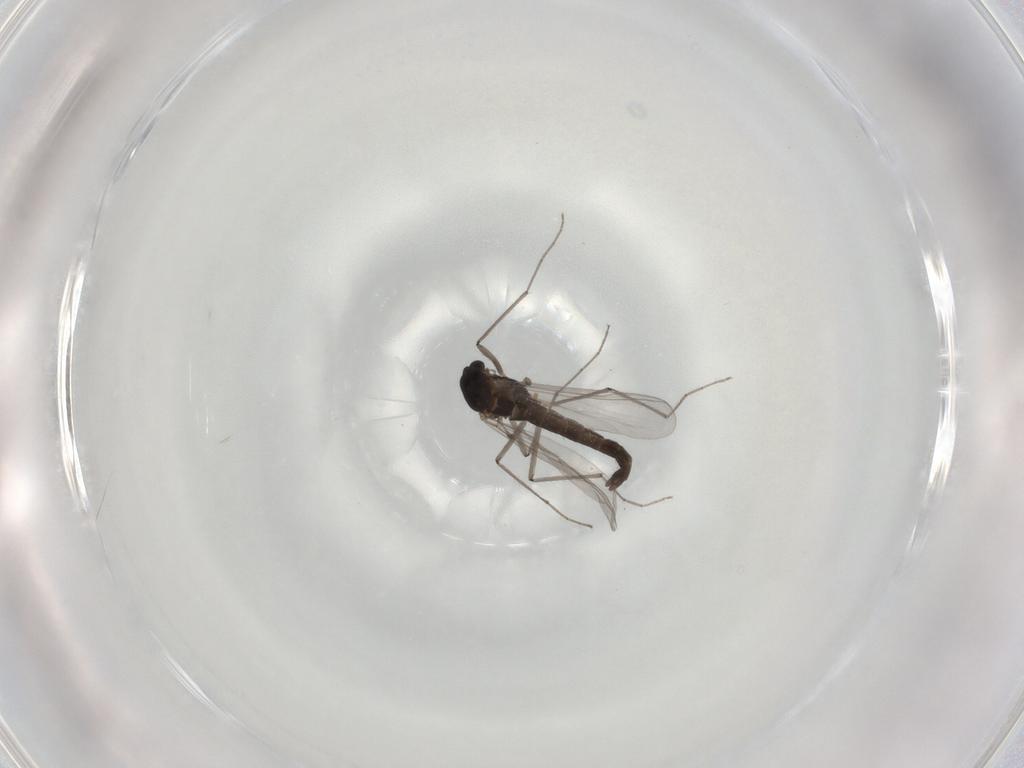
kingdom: Animalia
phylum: Arthropoda
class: Insecta
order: Diptera
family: Chironomidae
